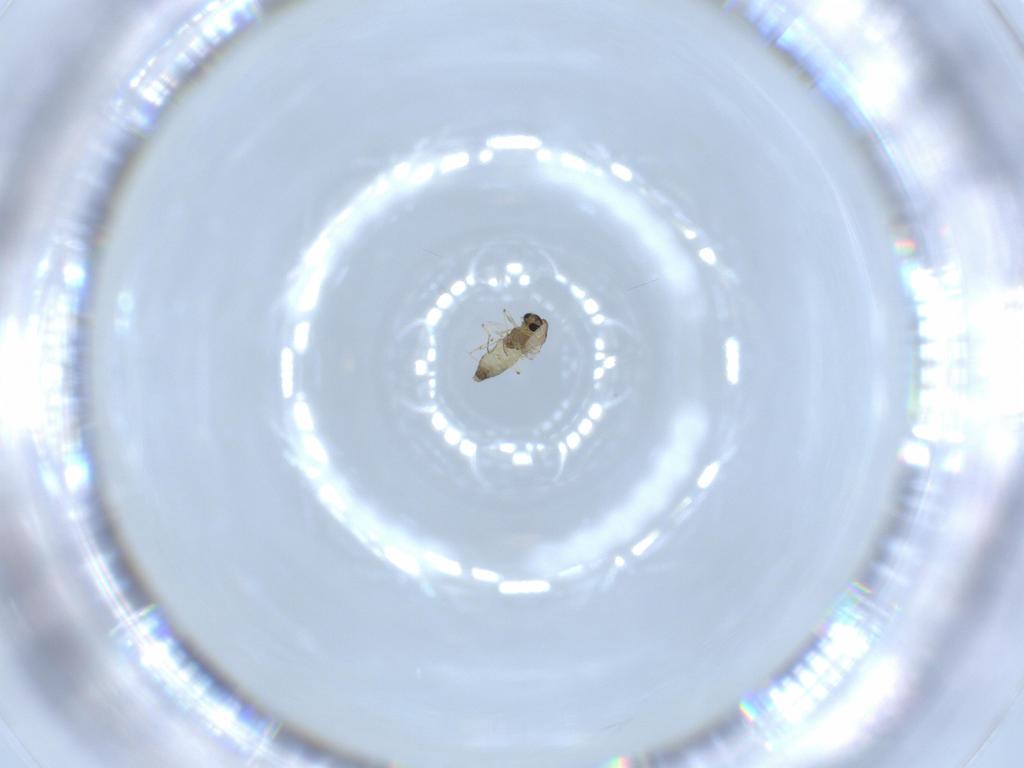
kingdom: Animalia
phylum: Arthropoda
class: Insecta
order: Diptera
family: Chironomidae
